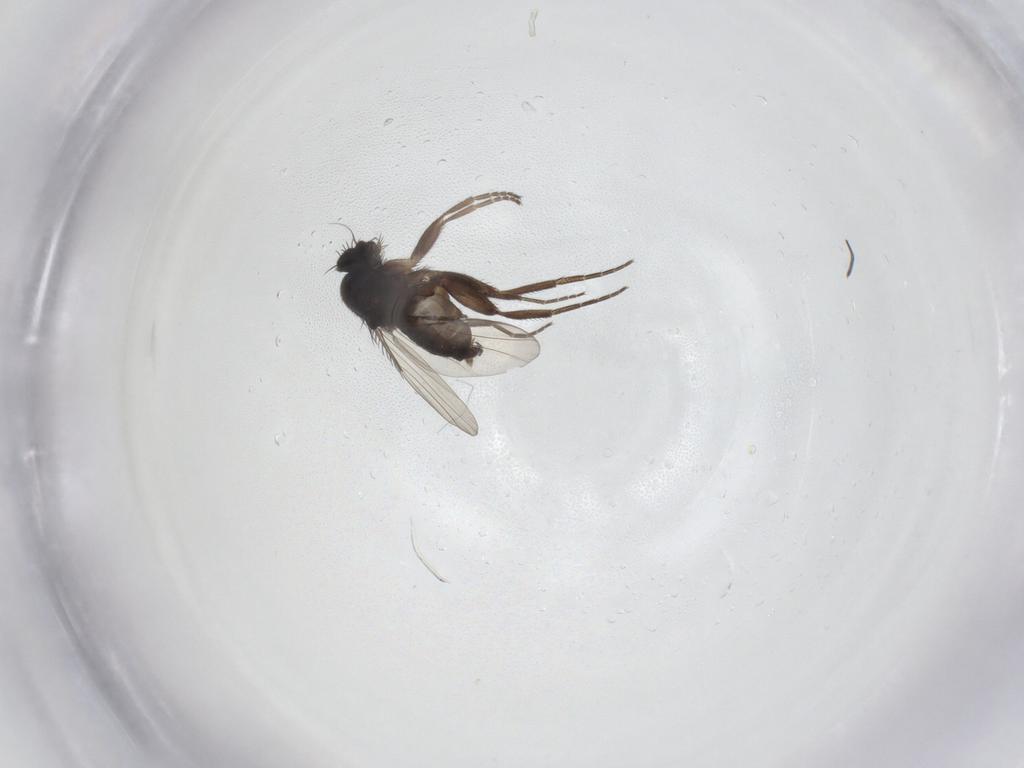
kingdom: Animalia
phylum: Arthropoda
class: Insecta
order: Diptera
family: Phoridae
